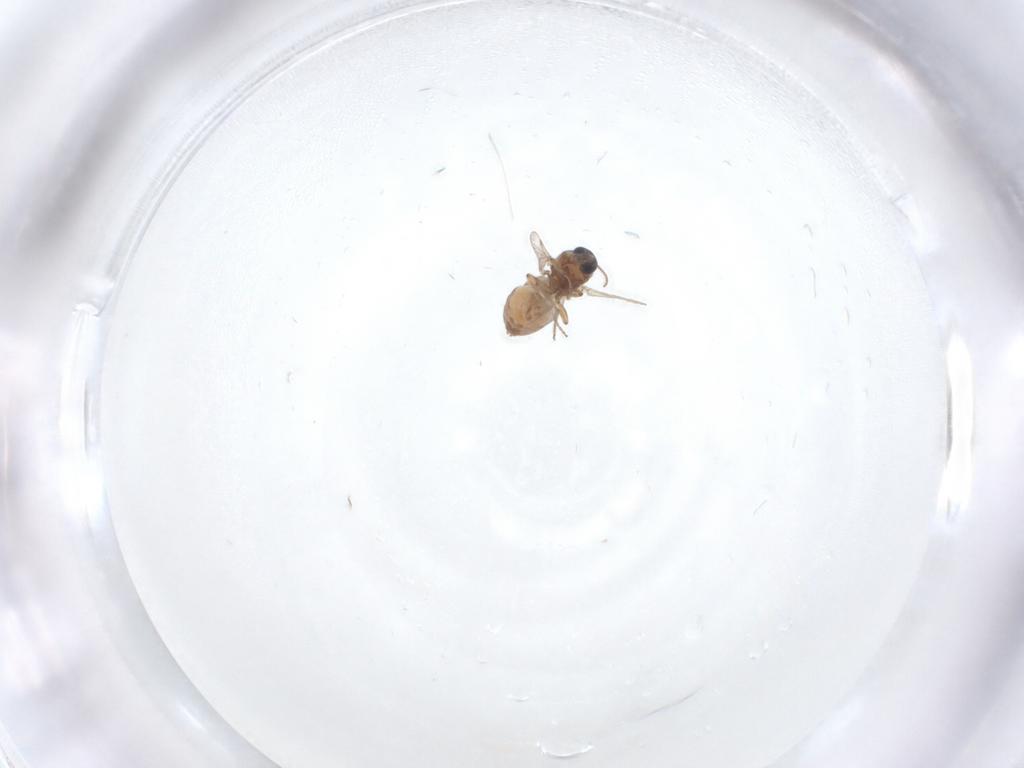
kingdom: Animalia
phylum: Arthropoda
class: Insecta
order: Diptera
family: Ceratopogonidae
